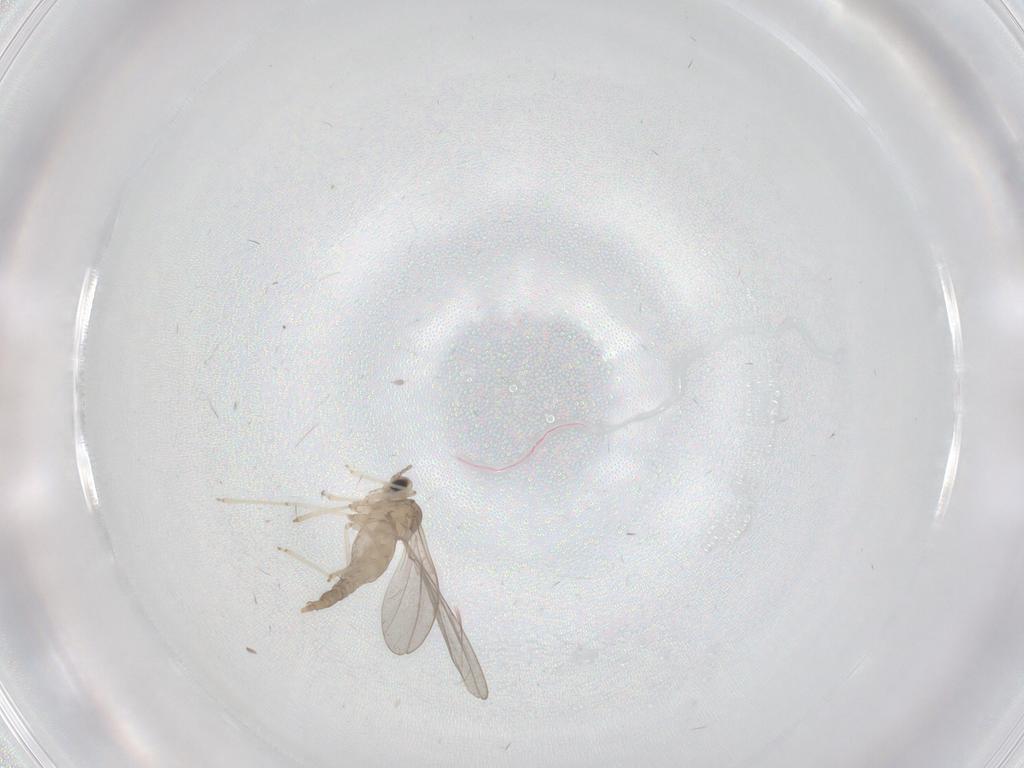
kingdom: Animalia
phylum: Arthropoda
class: Insecta
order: Diptera
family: Cecidomyiidae
